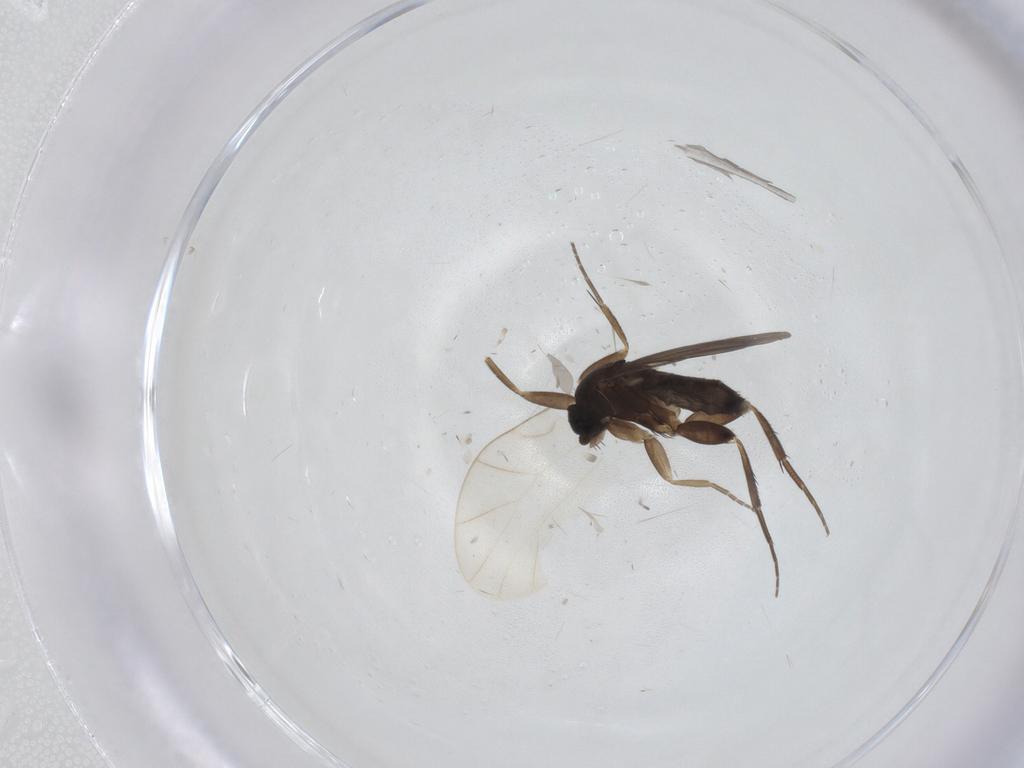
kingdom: Animalia
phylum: Arthropoda
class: Insecta
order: Diptera
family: Phoridae
